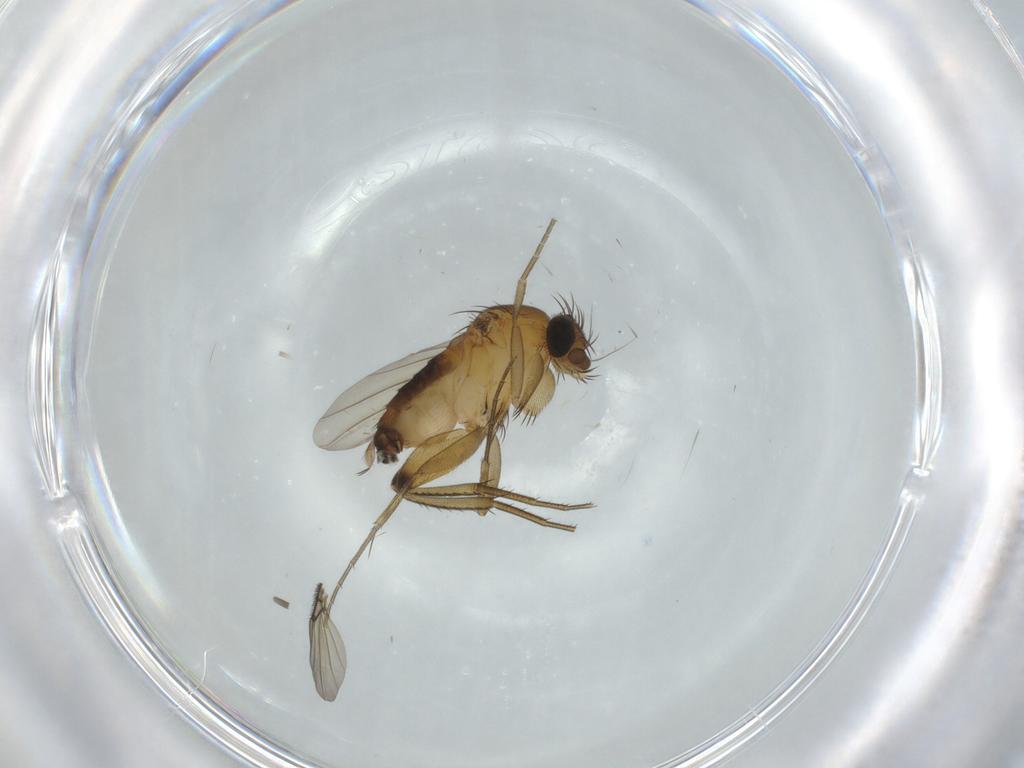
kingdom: Animalia
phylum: Arthropoda
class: Insecta
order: Diptera
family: Phoridae
